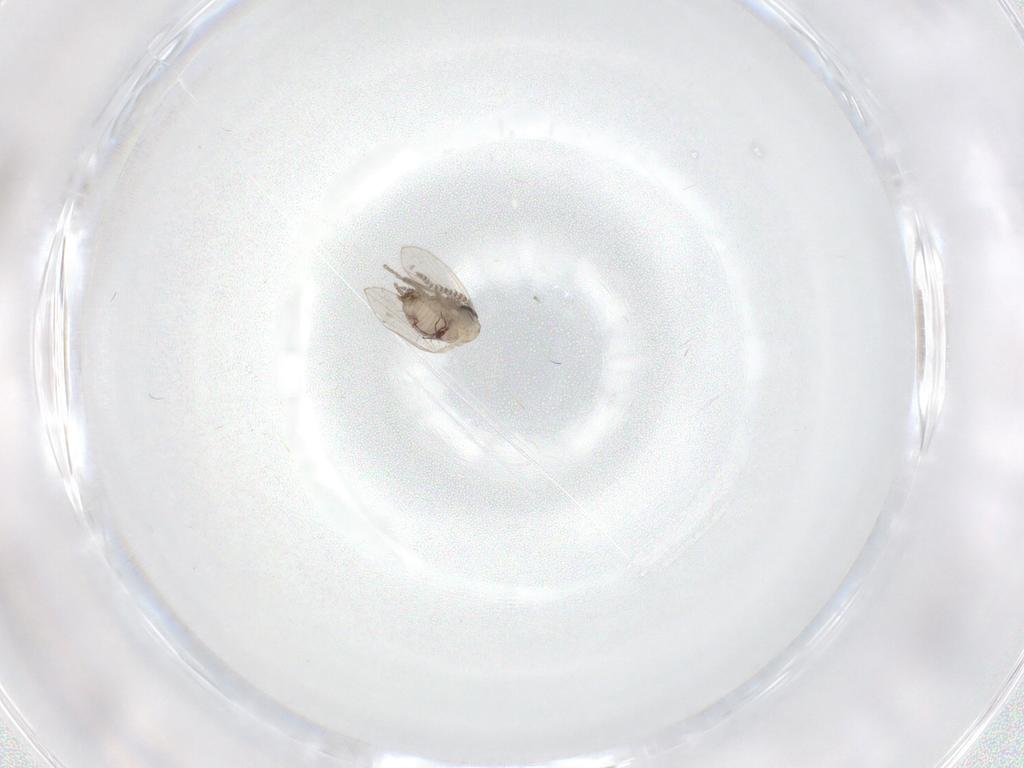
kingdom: Animalia
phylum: Arthropoda
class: Insecta
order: Diptera
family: Psychodidae
